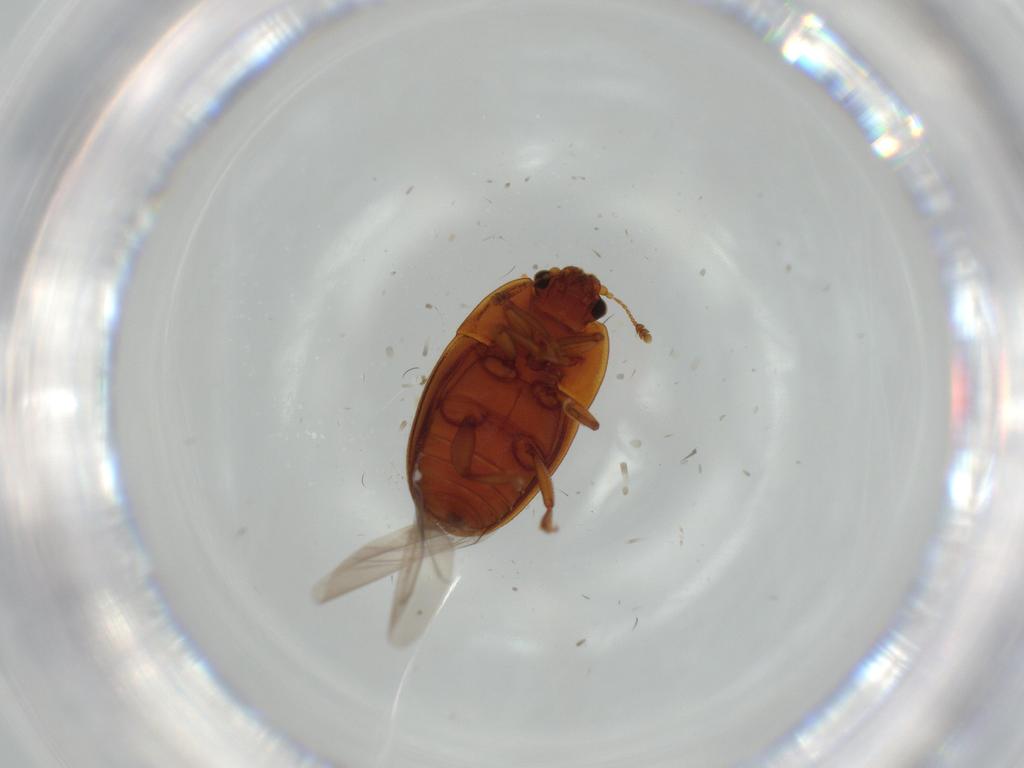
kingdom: Animalia
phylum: Arthropoda
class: Insecta
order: Coleoptera
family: Nitidulidae
